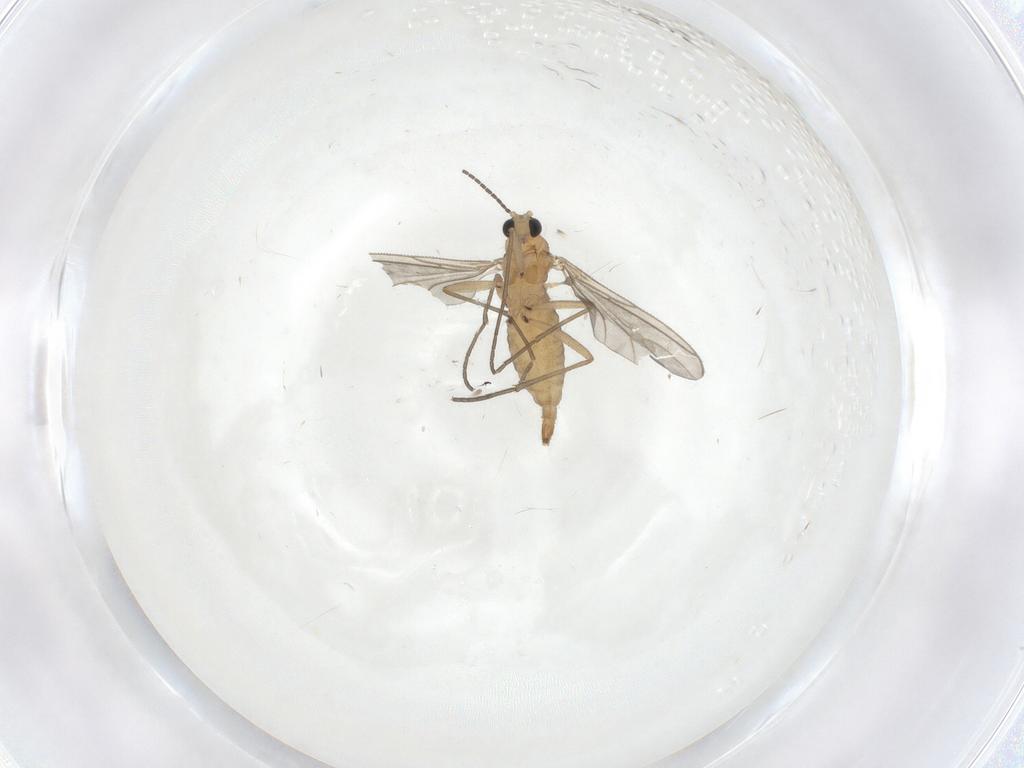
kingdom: Animalia
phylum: Arthropoda
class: Insecta
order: Diptera
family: Sciaridae
